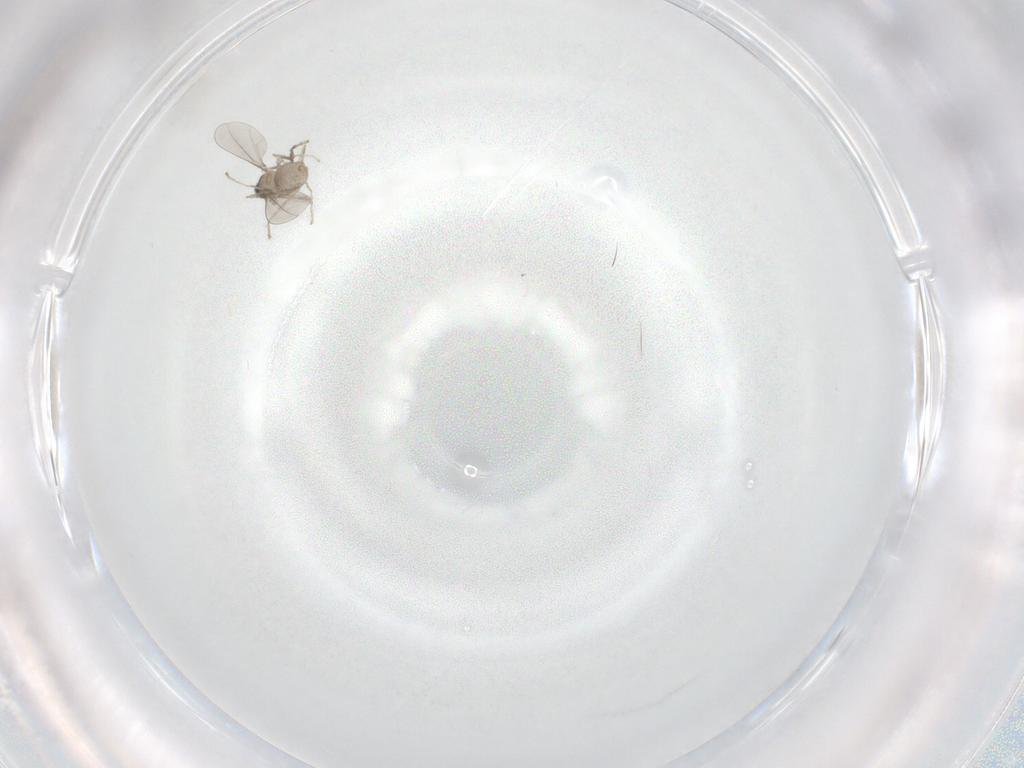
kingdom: Animalia
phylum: Arthropoda
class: Insecta
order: Diptera
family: Cecidomyiidae
